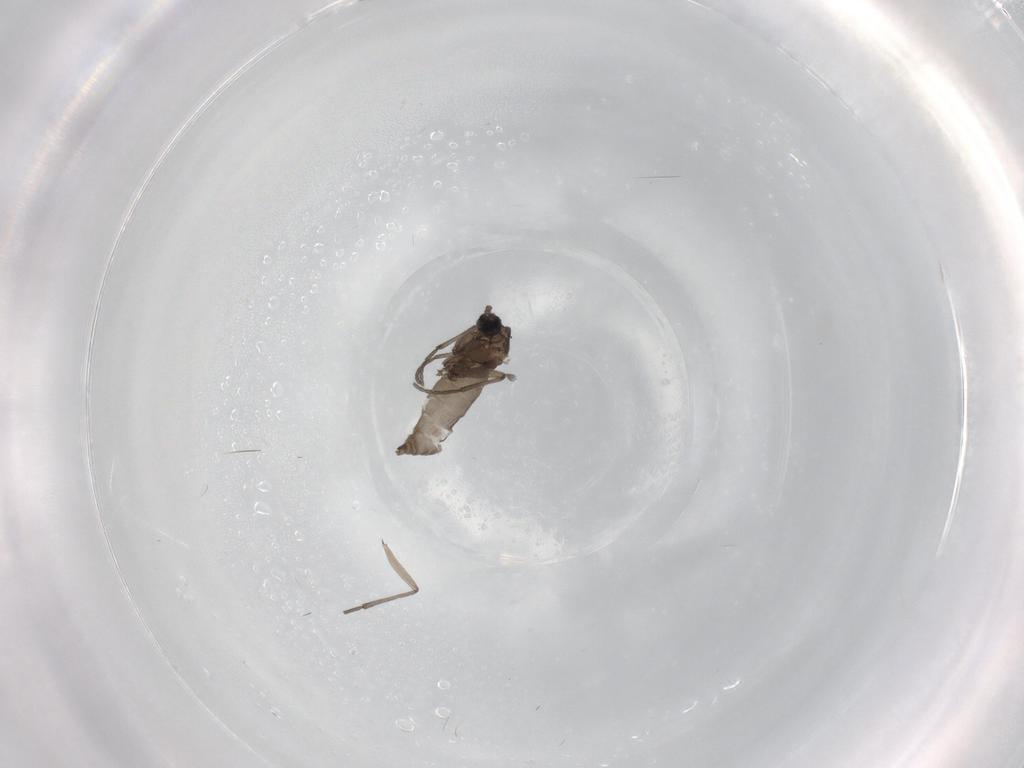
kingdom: Animalia
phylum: Arthropoda
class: Insecta
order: Diptera
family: Sciaridae
